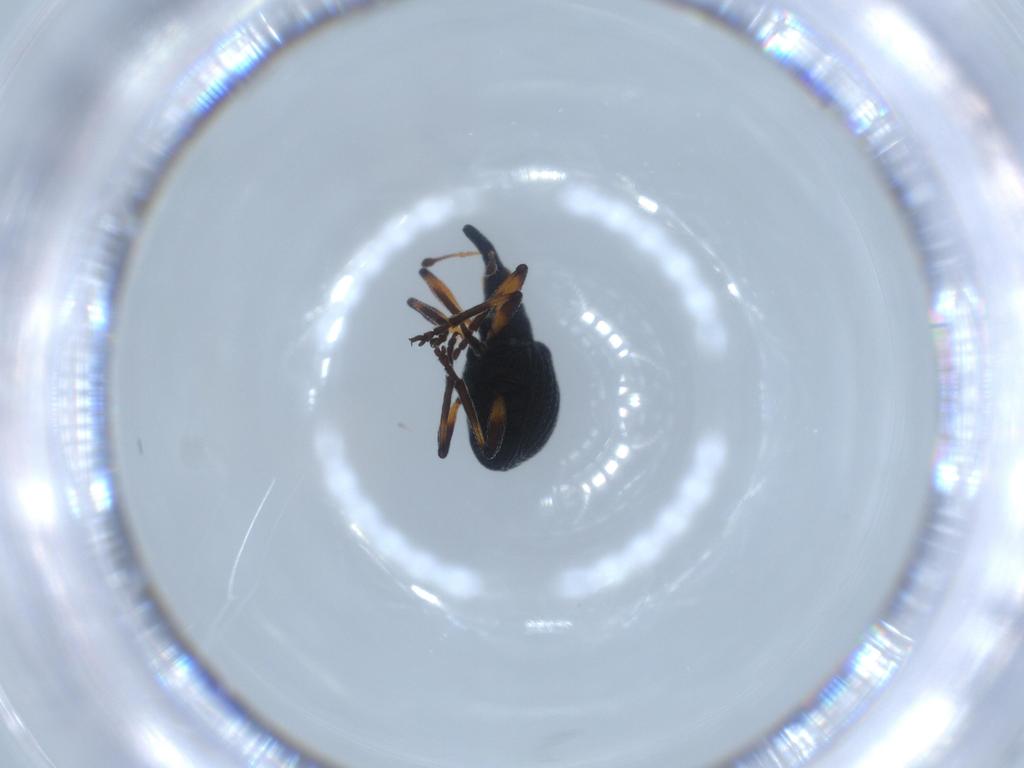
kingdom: Animalia
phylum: Arthropoda
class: Insecta
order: Coleoptera
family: Brentidae
